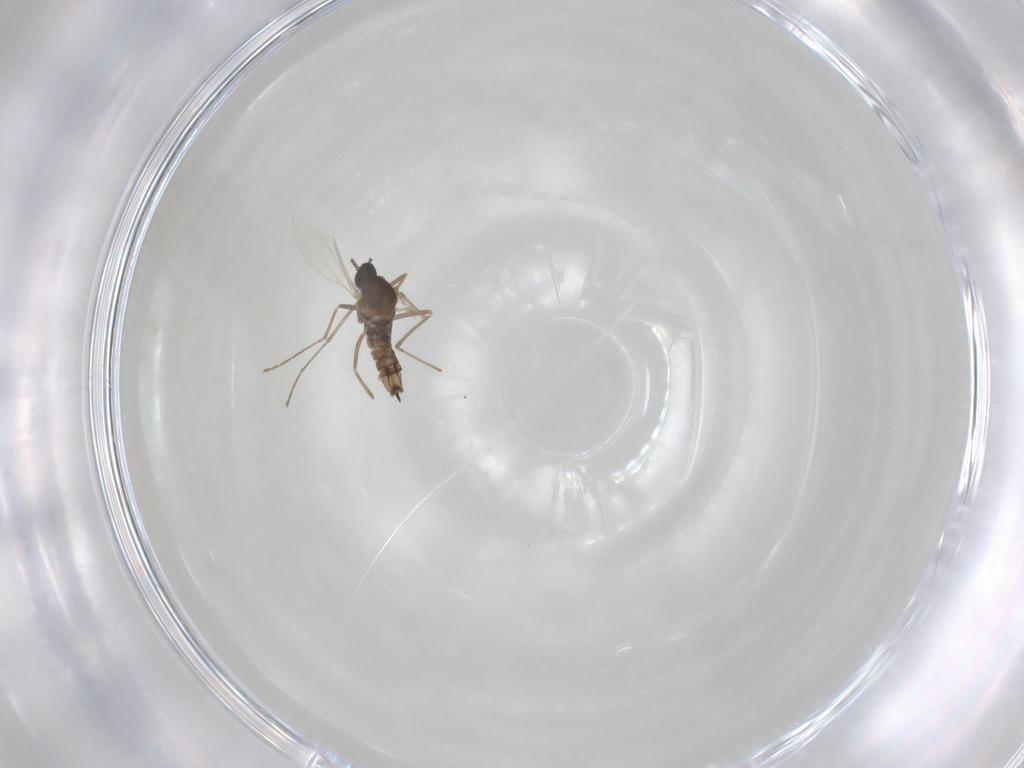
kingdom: Animalia
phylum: Arthropoda
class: Insecta
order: Diptera
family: Cecidomyiidae
